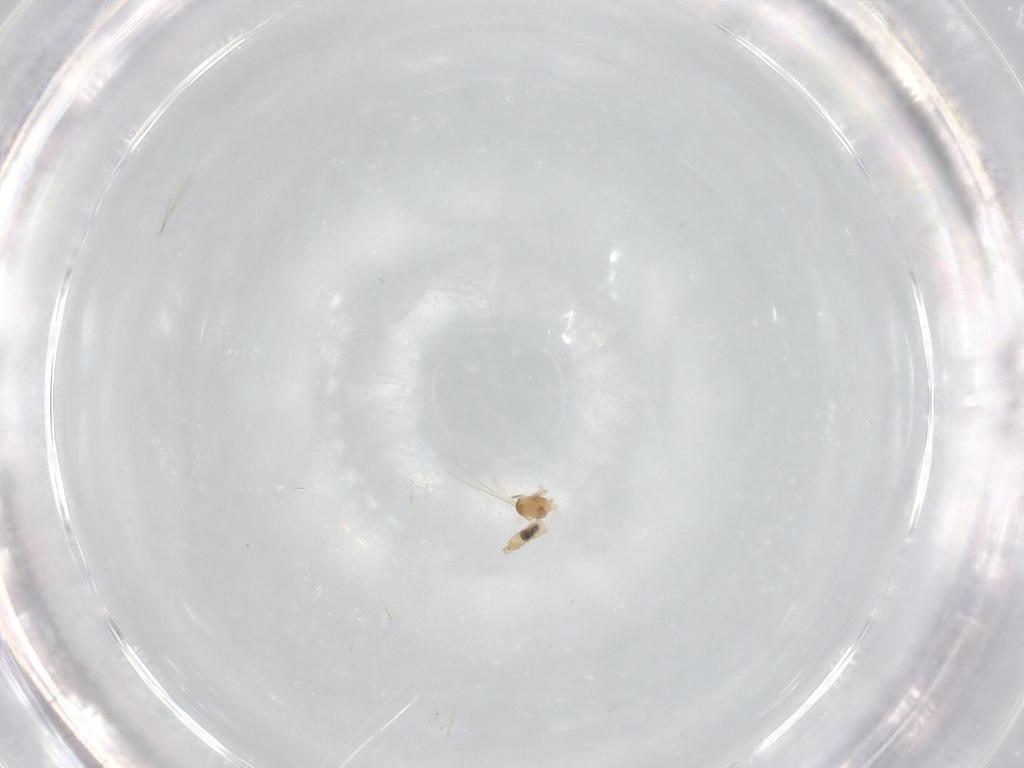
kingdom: Animalia
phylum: Arthropoda
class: Insecta
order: Diptera
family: Cecidomyiidae
